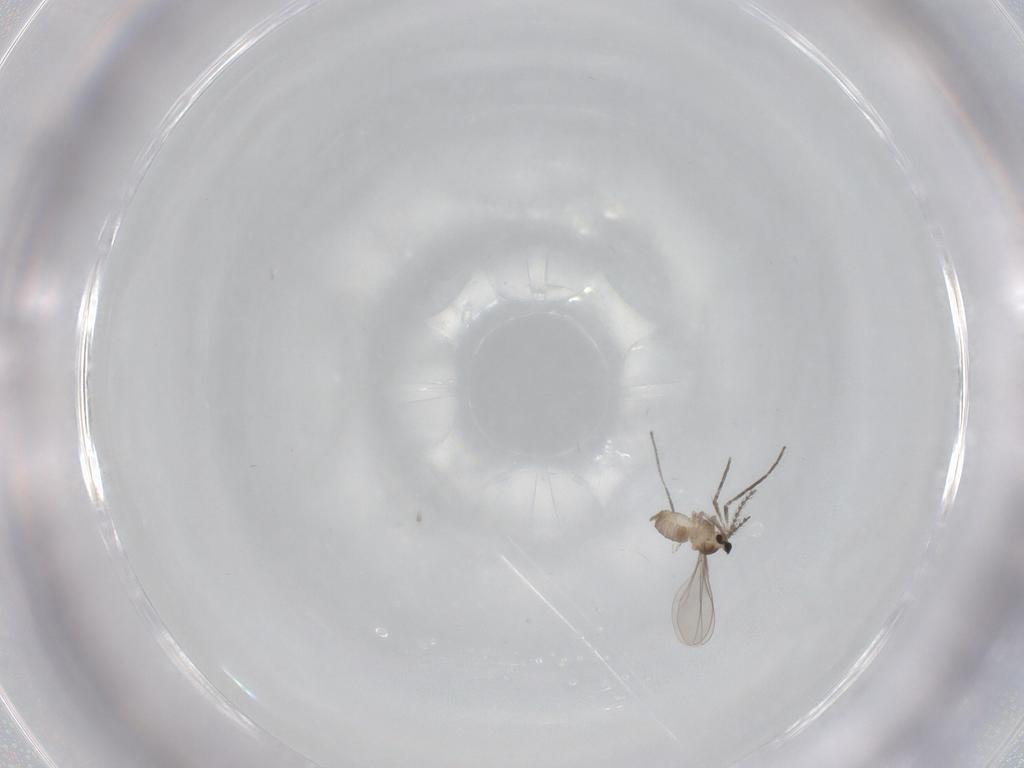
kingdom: Animalia
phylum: Arthropoda
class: Insecta
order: Diptera
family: Cecidomyiidae
